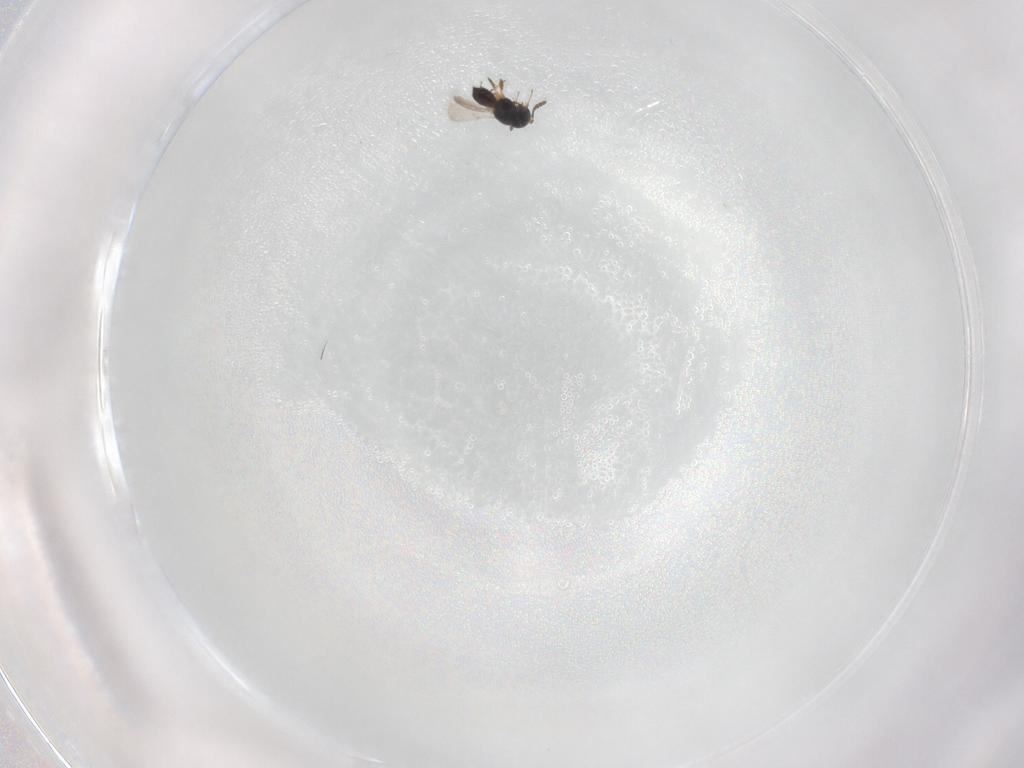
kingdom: Animalia
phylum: Arthropoda
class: Insecta
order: Hymenoptera
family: Scelionidae
